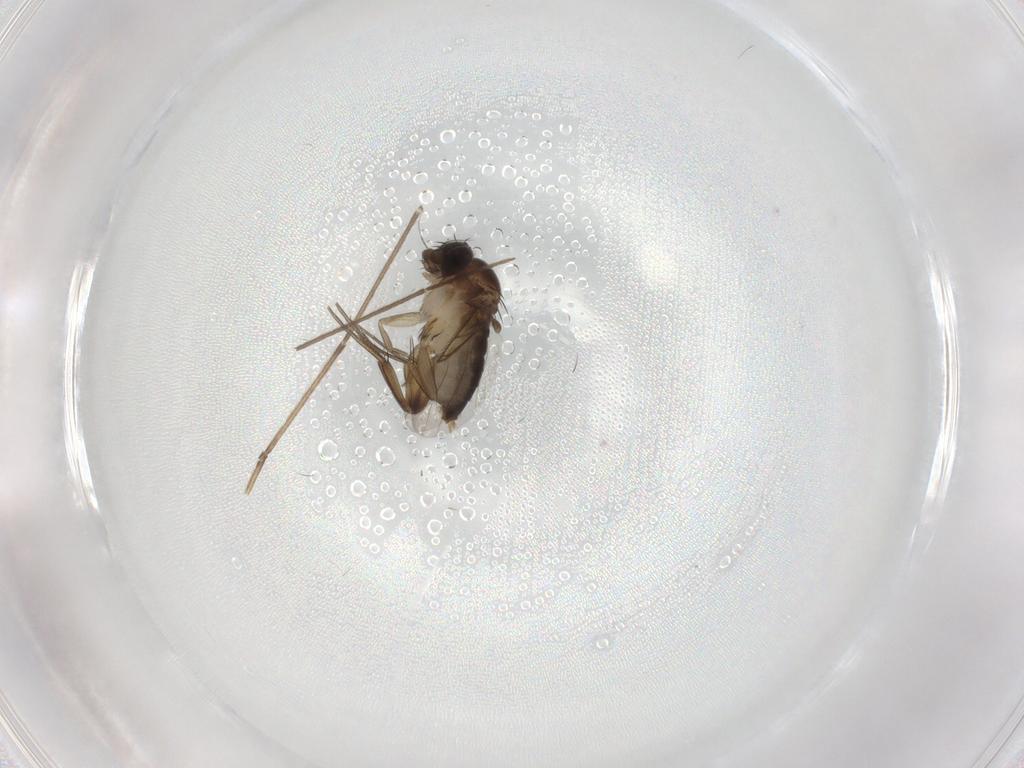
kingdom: Animalia
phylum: Arthropoda
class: Insecta
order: Diptera
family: Phoridae
